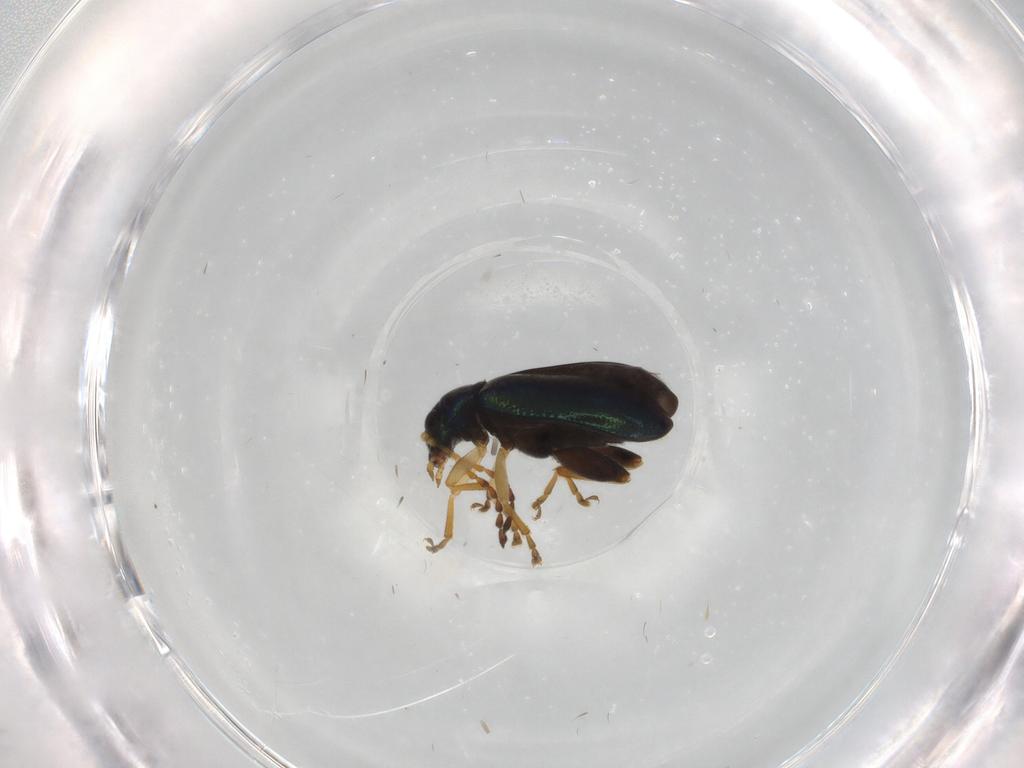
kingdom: Animalia
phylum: Arthropoda
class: Insecta
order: Coleoptera
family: Chrysomelidae
